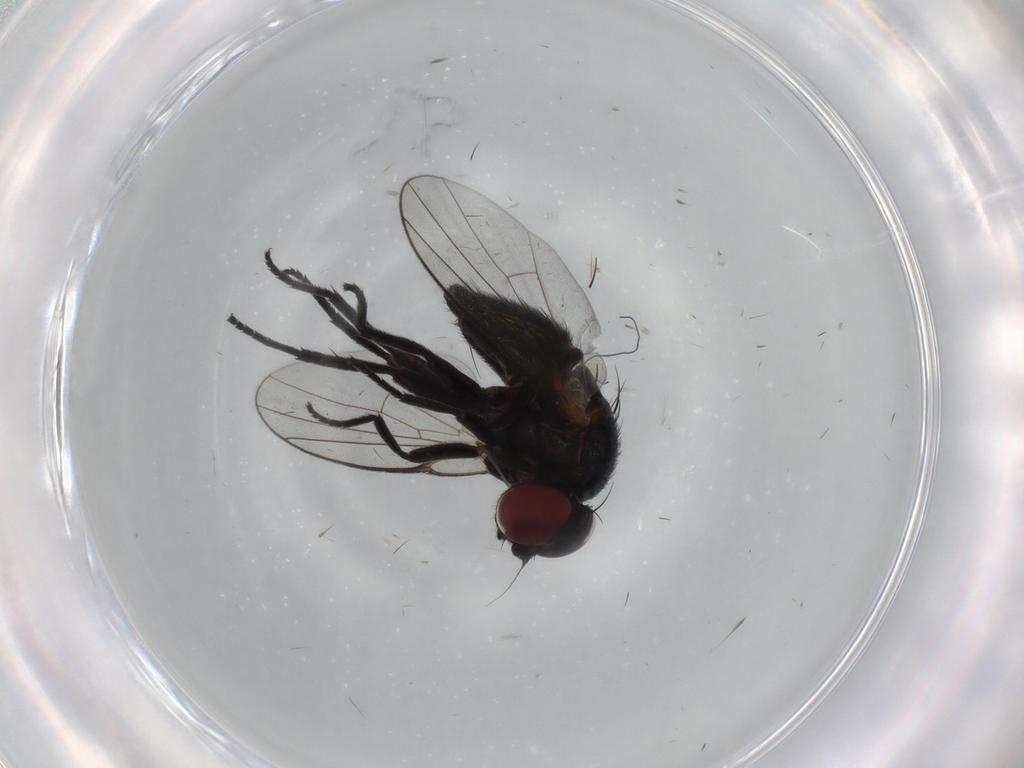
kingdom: Animalia
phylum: Arthropoda
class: Insecta
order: Diptera
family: Agromyzidae
